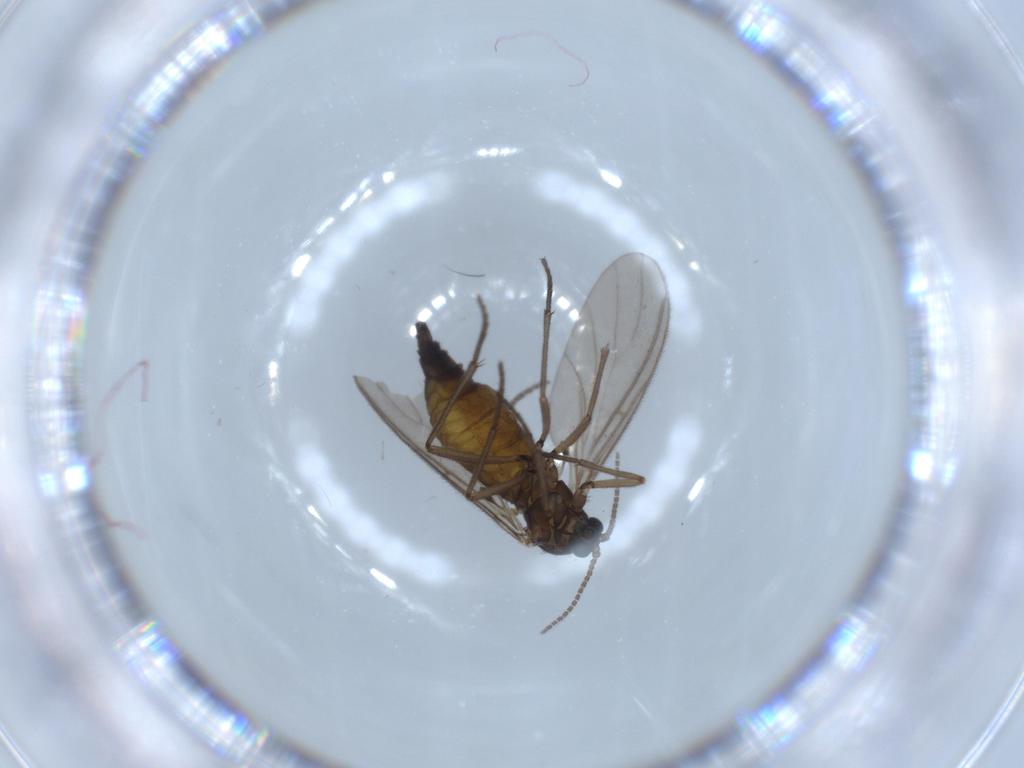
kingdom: Animalia
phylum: Arthropoda
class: Insecta
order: Diptera
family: Sciaridae
